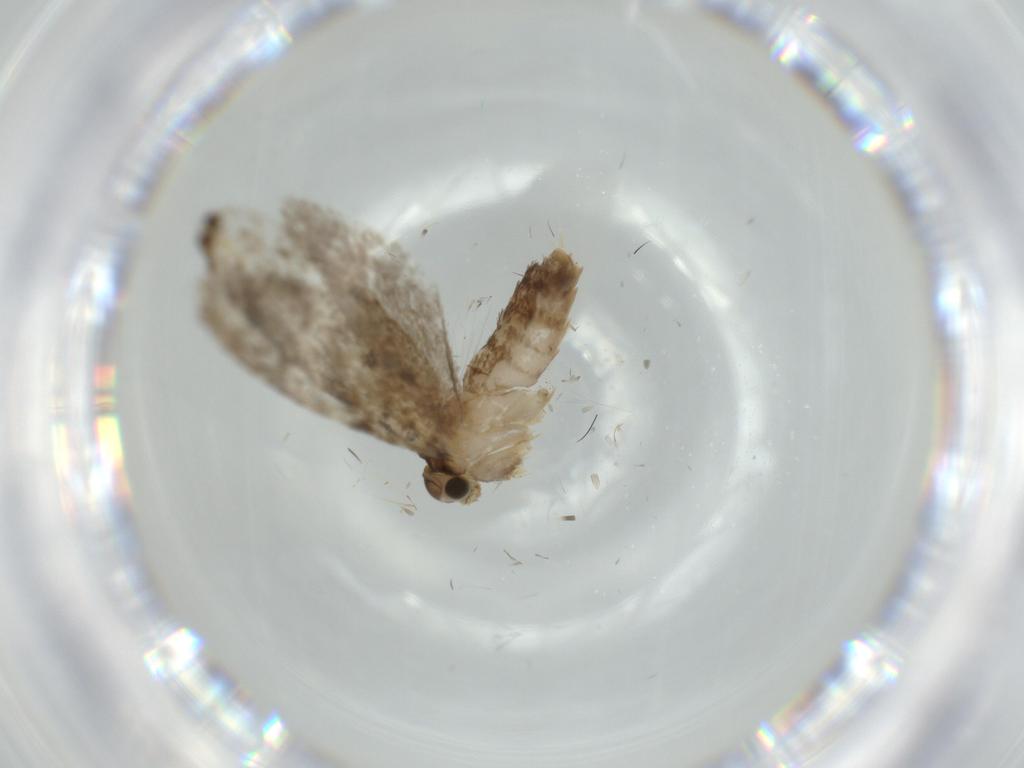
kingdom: Animalia
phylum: Arthropoda
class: Insecta
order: Lepidoptera
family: Tineidae
